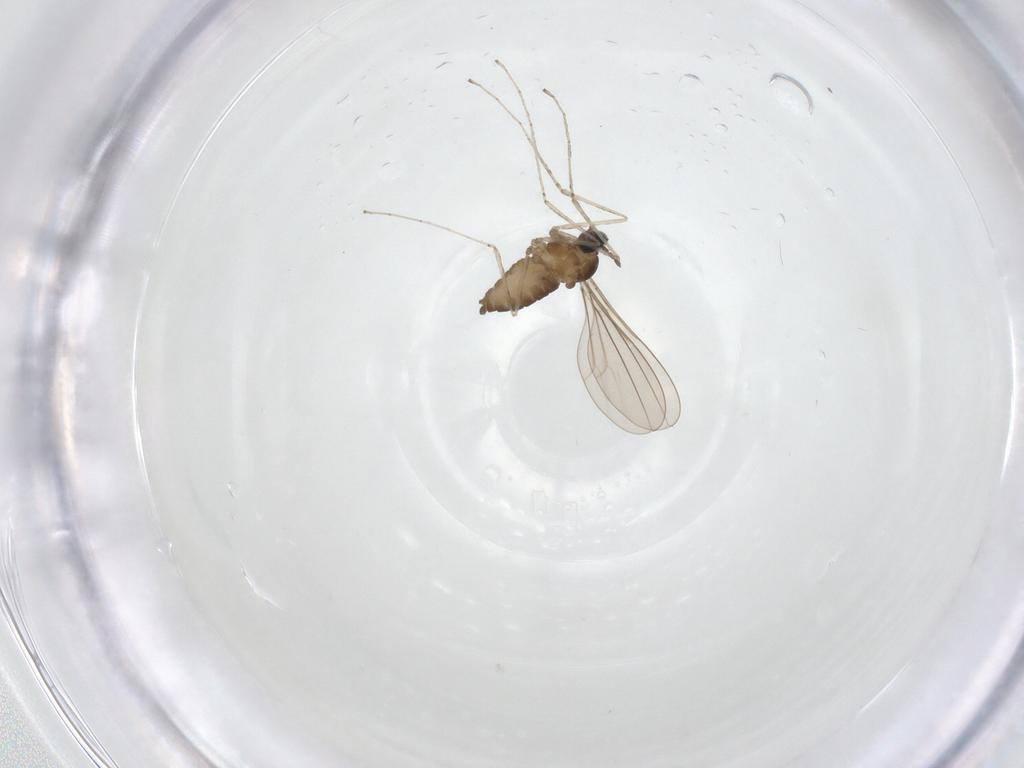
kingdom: Animalia
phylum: Arthropoda
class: Insecta
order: Diptera
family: Cecidomyiidae
